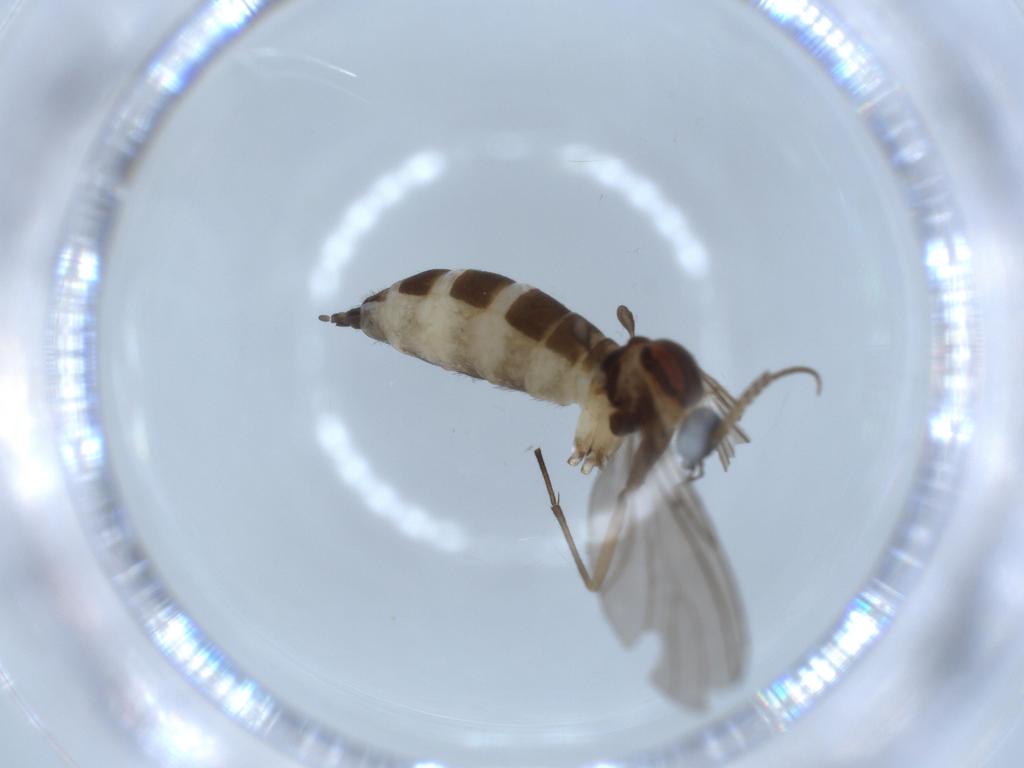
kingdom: Animalia
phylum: Arthropoda
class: Insecta
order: Diptera
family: Sciaridae
